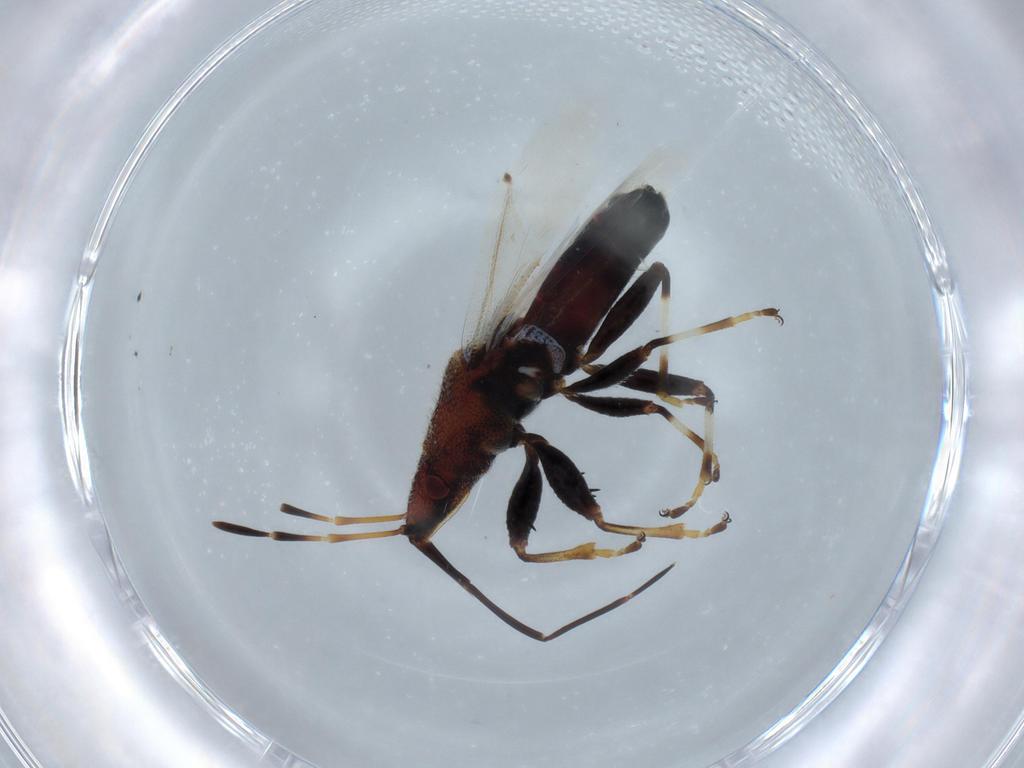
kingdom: Animalia
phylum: Arthropoda
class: Insecta
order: Hemiptera
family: Oxycarenidae
